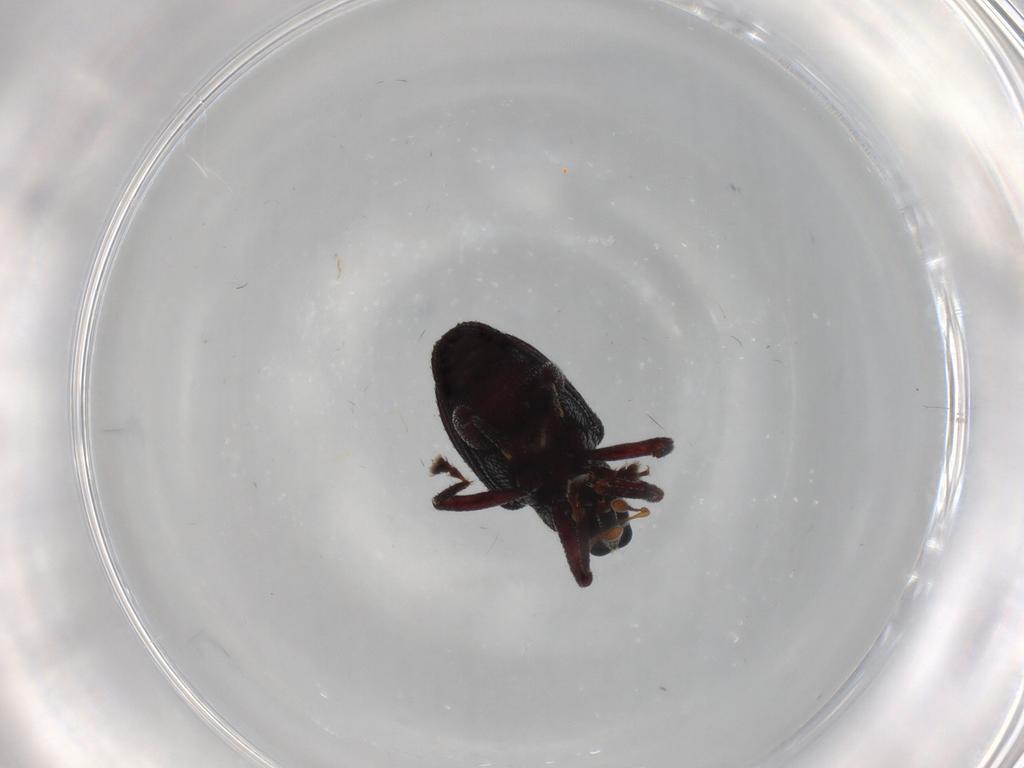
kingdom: Animalia
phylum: Arthropoda
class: Insecta
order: Coleoptera
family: Curculionidae
